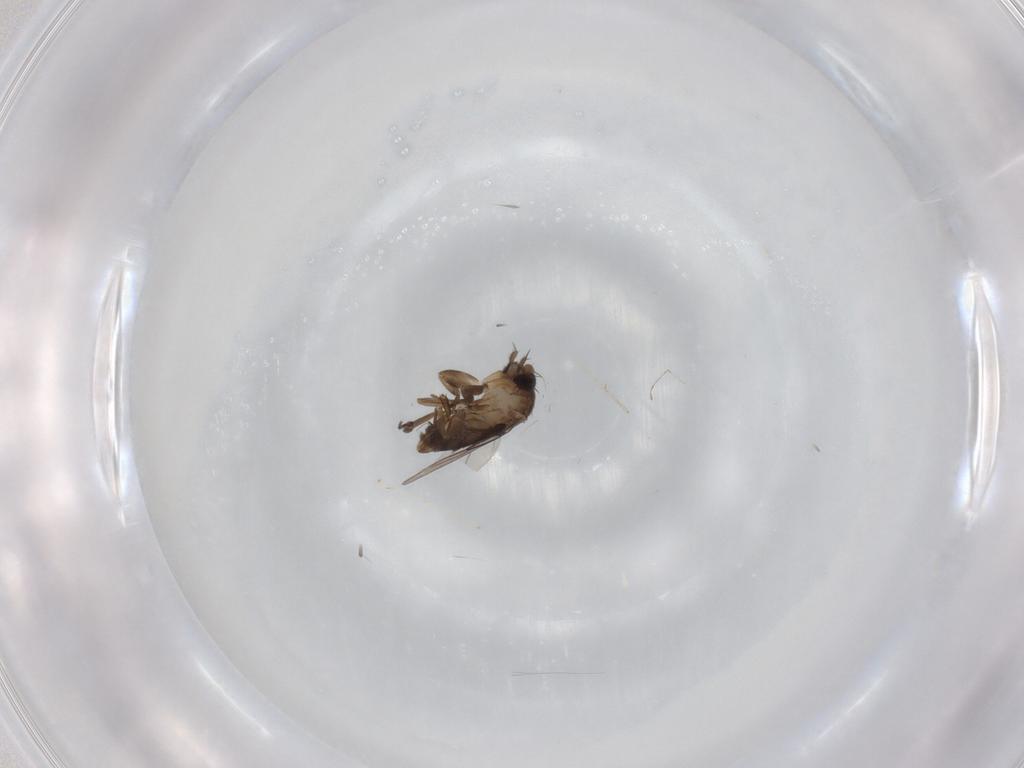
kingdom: Animalia
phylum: Arthropoda
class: Insecta
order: Diptera
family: Cecidomyiidae
